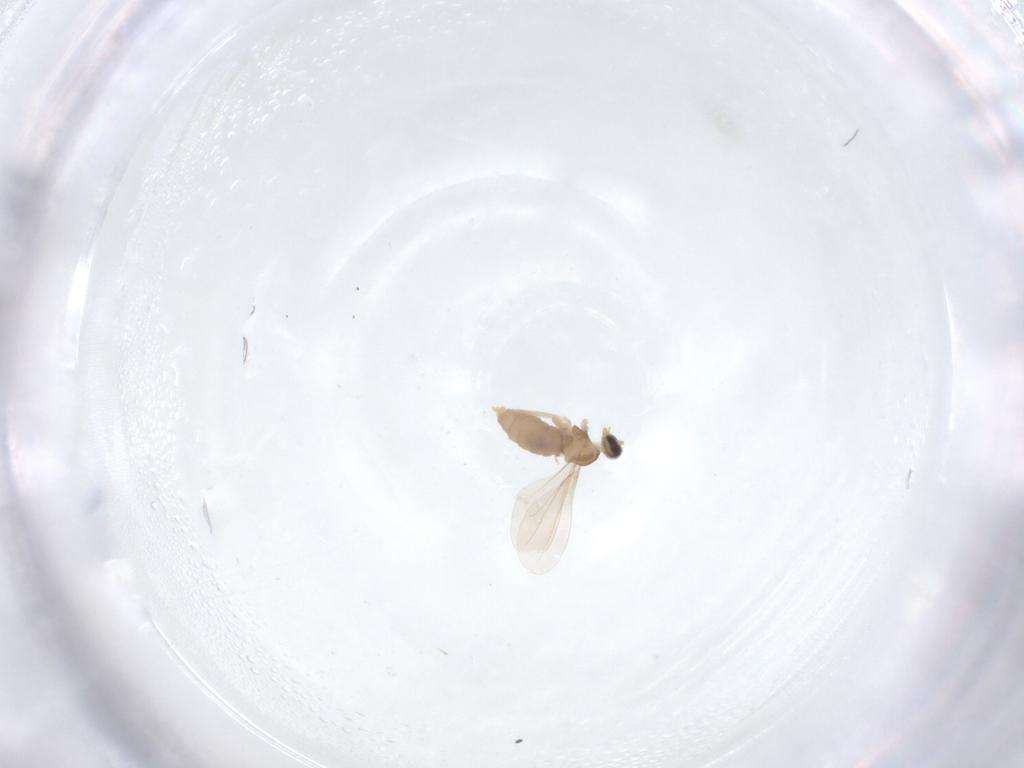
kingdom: Animalia
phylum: Arthropoda
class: Insecta
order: Diptera
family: Cecidomyiidae
